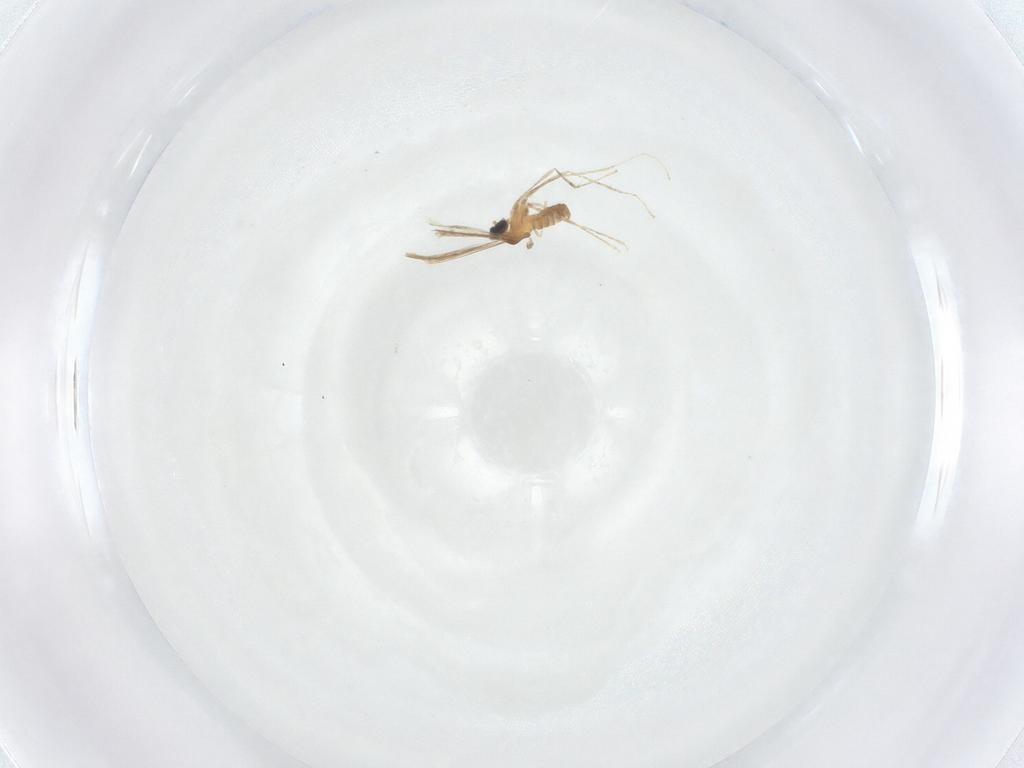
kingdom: Animalia
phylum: Arthropoda
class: Insecta
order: Diptera
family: Cecidomyiidae
